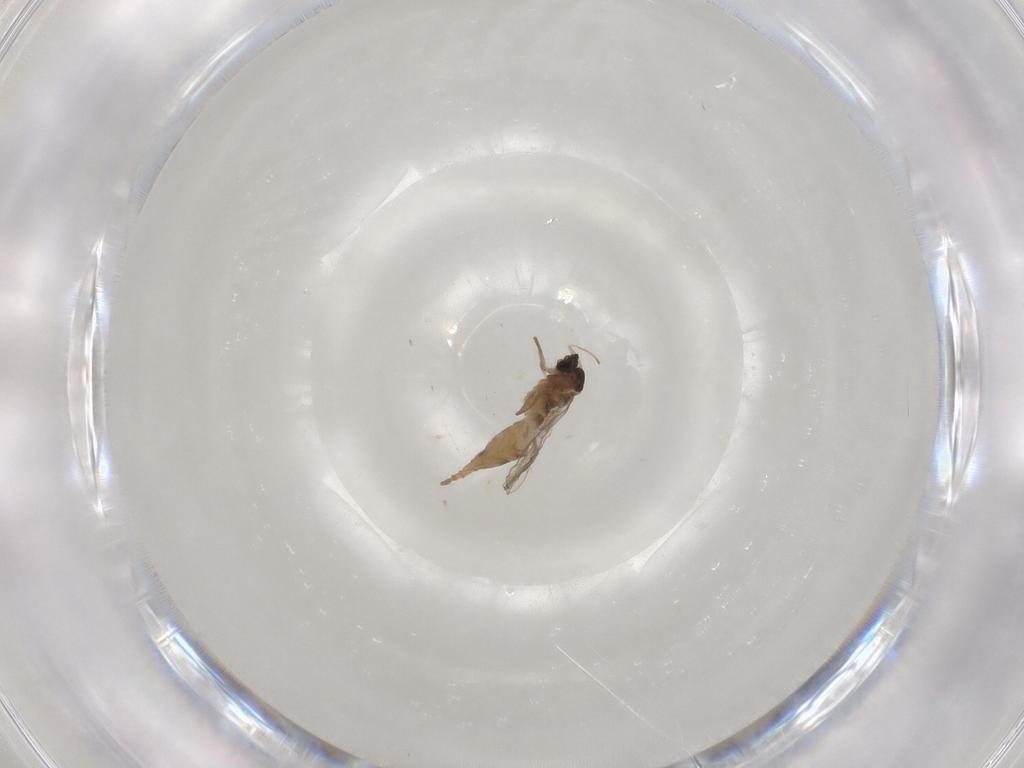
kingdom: Animalia
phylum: Arthropoda
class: Insecta
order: Diptera
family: Cecidomyiidae
